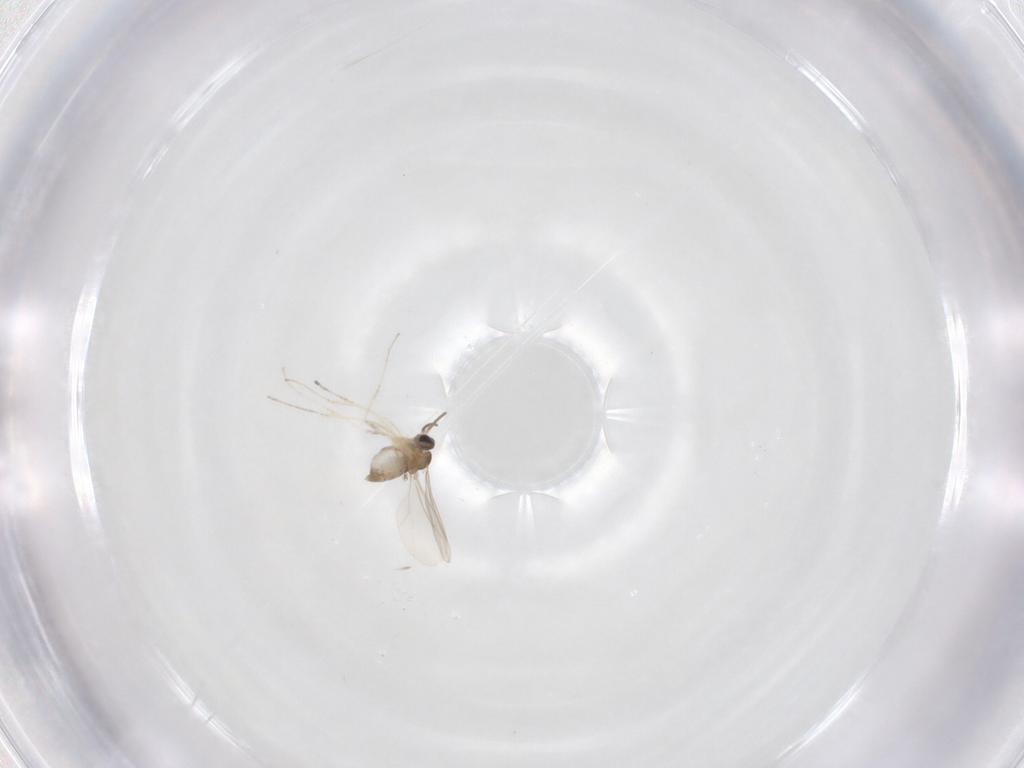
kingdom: Animalia
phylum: Arthropoda
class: Insecta
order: Diptera
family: Cecidomyiidae
